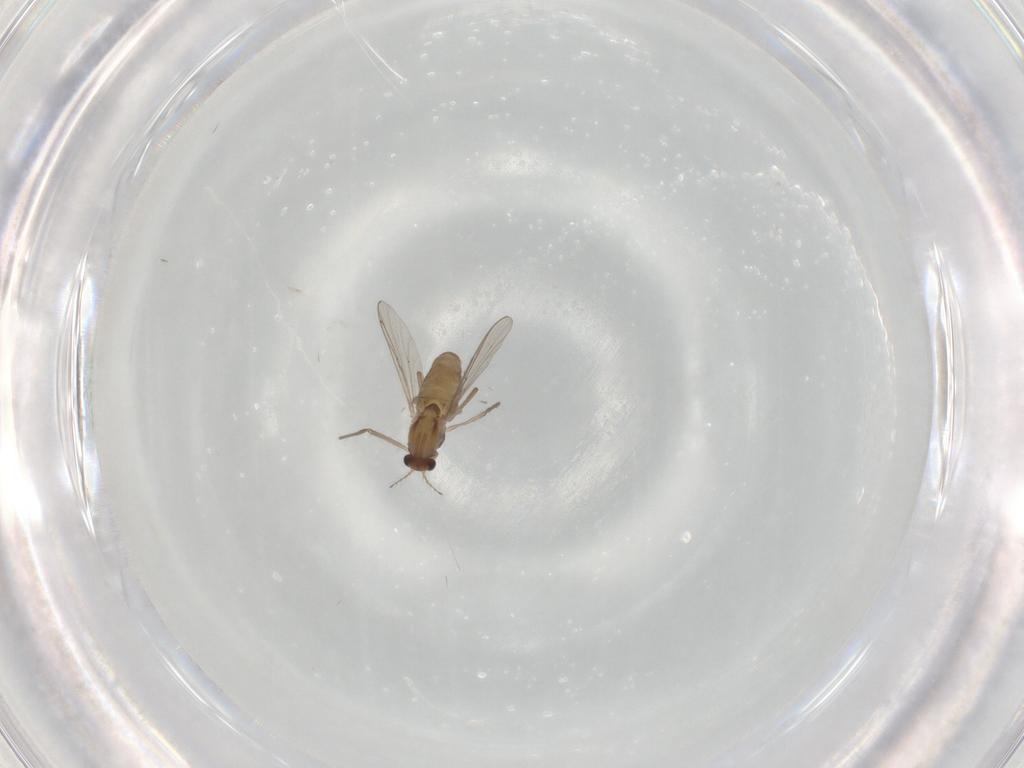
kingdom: Animalia
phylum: Arthropoda
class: Insecta
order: Diptera
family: Chironomidae
